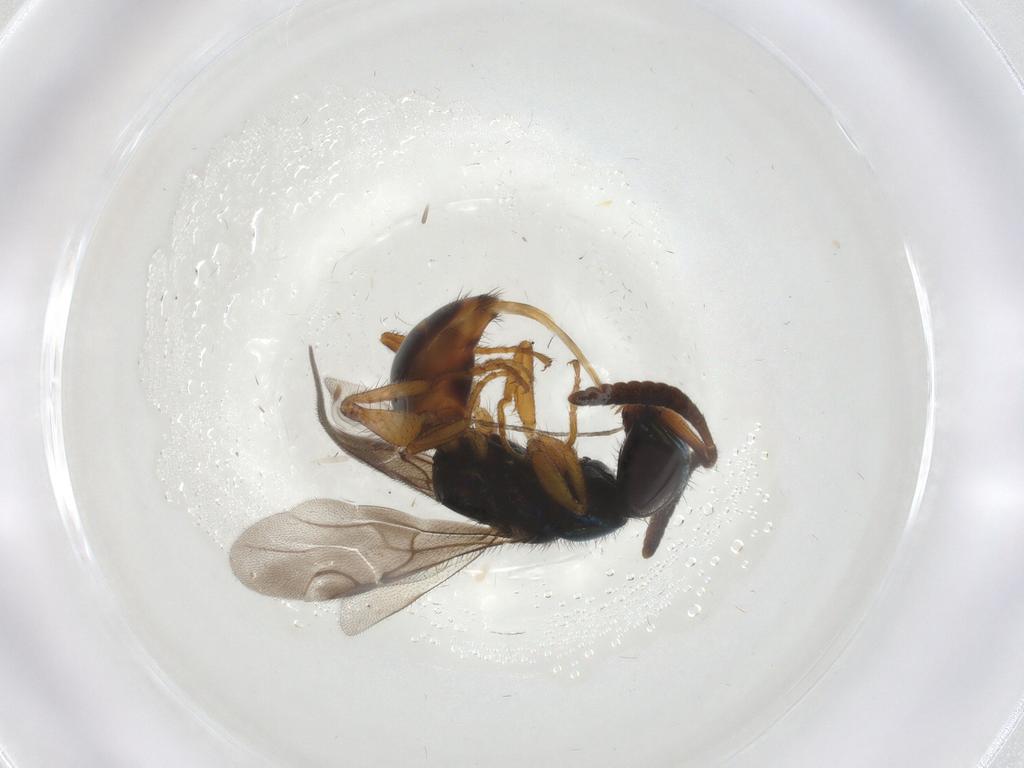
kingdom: Animalia
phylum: Arthropoda
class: Insecta
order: Hymenoptera
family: Chrysididae
